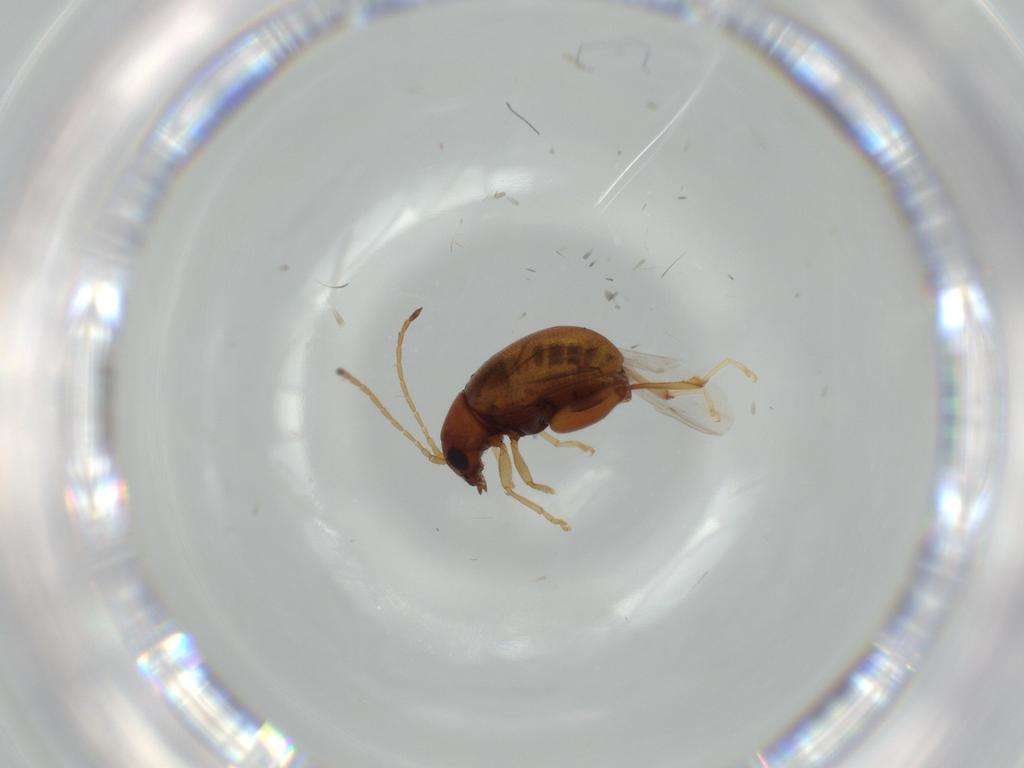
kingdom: Animalia
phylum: Arthropoda
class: Insecta
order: Coleoptera
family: Chrysomelidae
